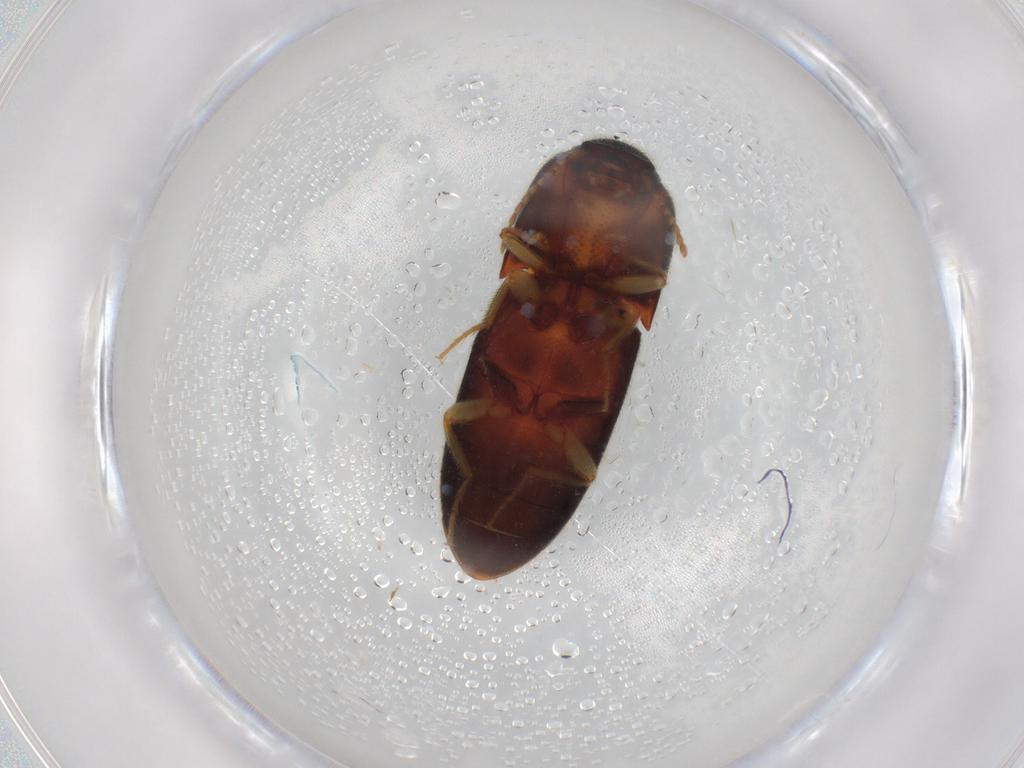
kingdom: Animalia
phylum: Arthropoda
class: Insecta
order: Coleoptera
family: Elateridae
